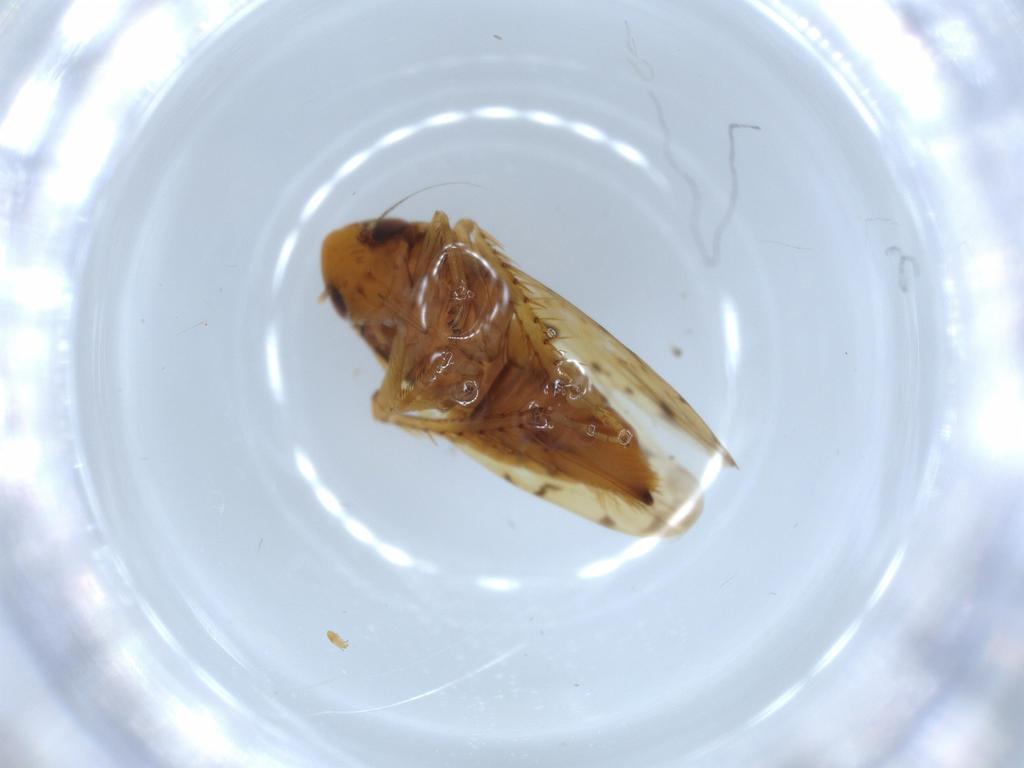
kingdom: Animalia
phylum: Arthropoda
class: Insecta
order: Hemiptera
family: Cicadellidae
